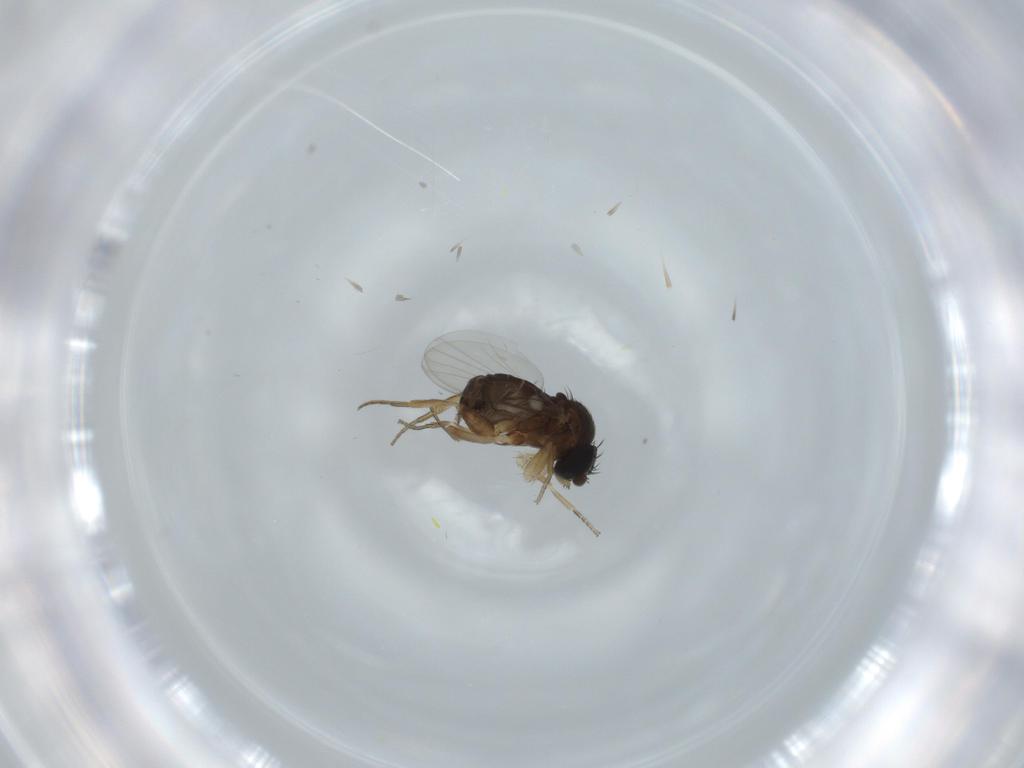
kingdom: Animalia
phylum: Arthropoda
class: Insecta
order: Diptera
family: Phoridae
